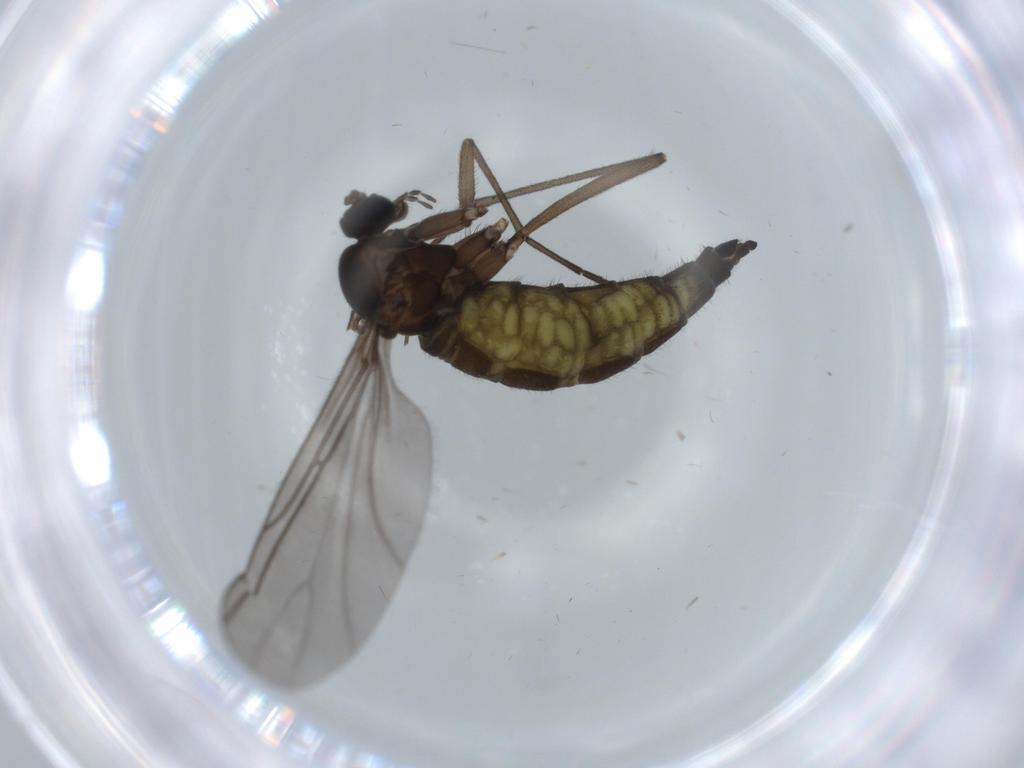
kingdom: Animalia
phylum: Arthropoda
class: Insecta
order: Diptera
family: Sciaridae
